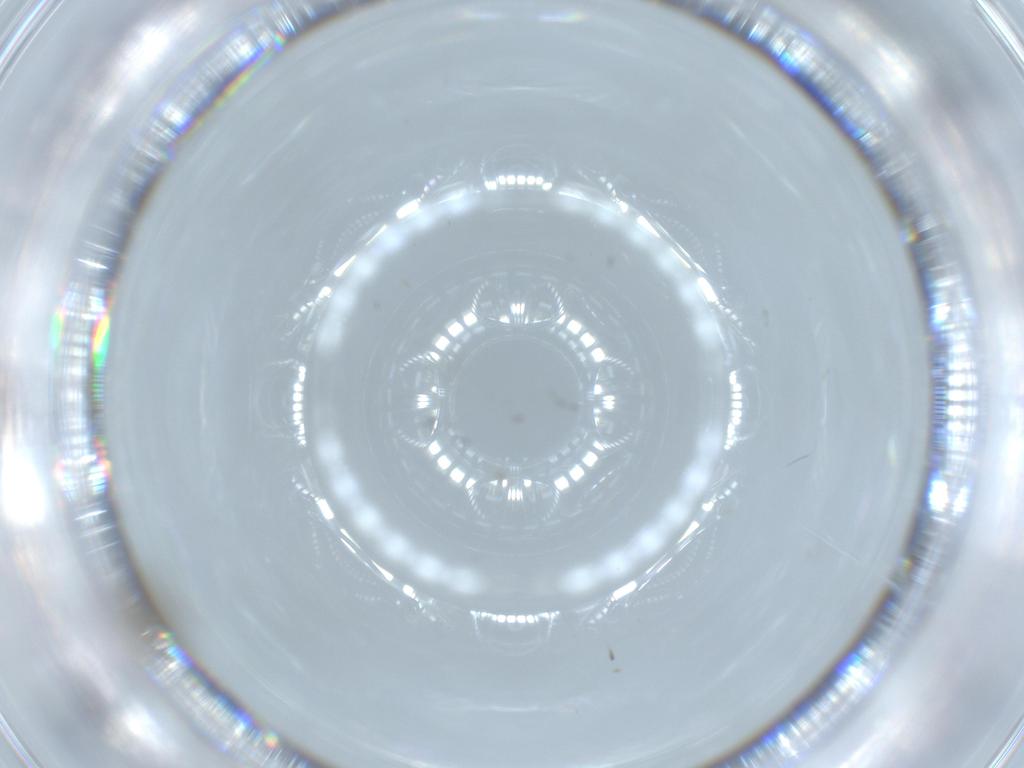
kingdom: Animalia
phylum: Arthropoda
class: Insecta
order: Diptera
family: Ceratopogonidae
